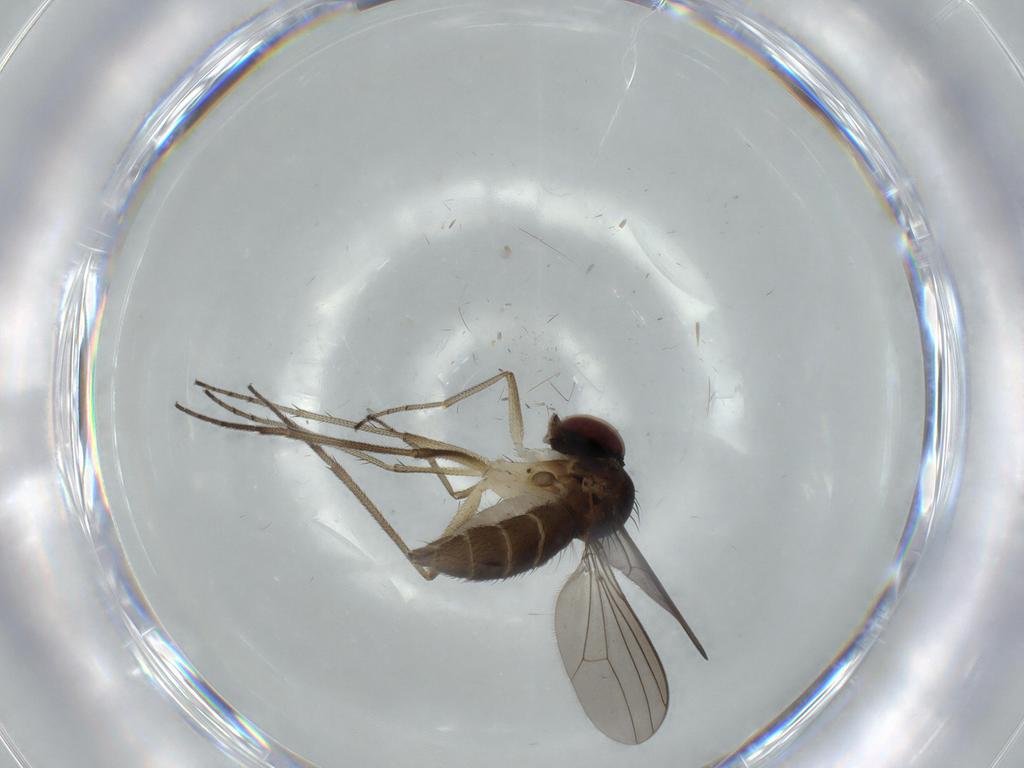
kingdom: Animalia
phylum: Arthropoda
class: Insecta
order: Diptera
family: Dolichopodidae
